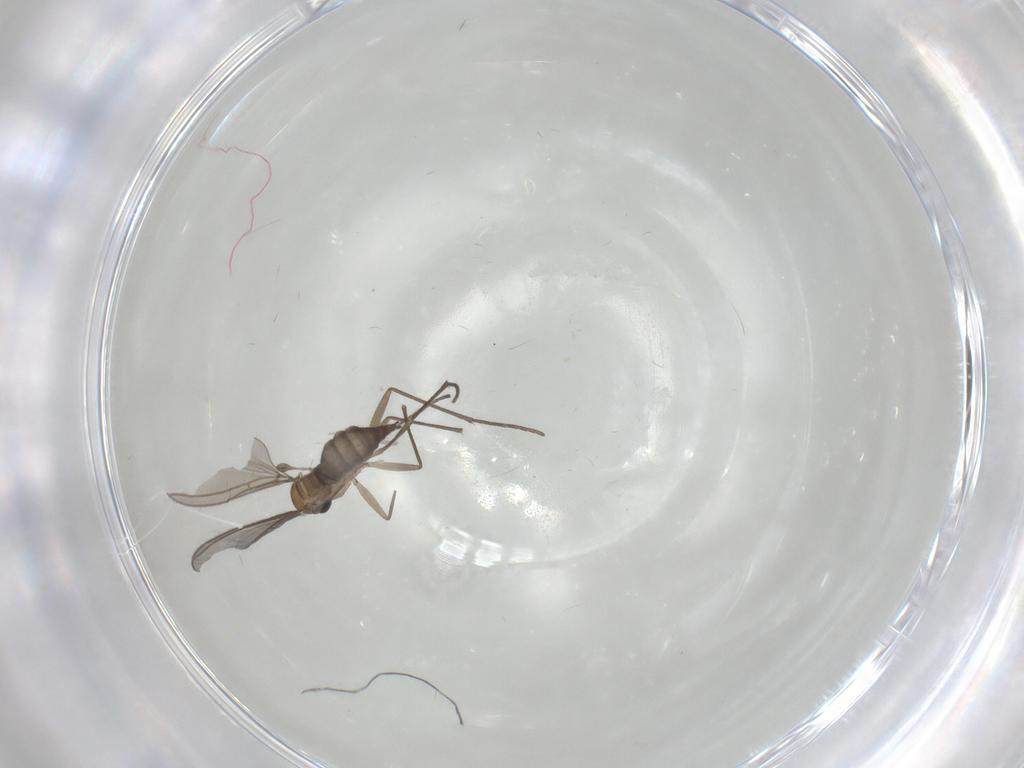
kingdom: Animalia
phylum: Arthropoda
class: Insecta
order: Diptera
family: Sciaridae
